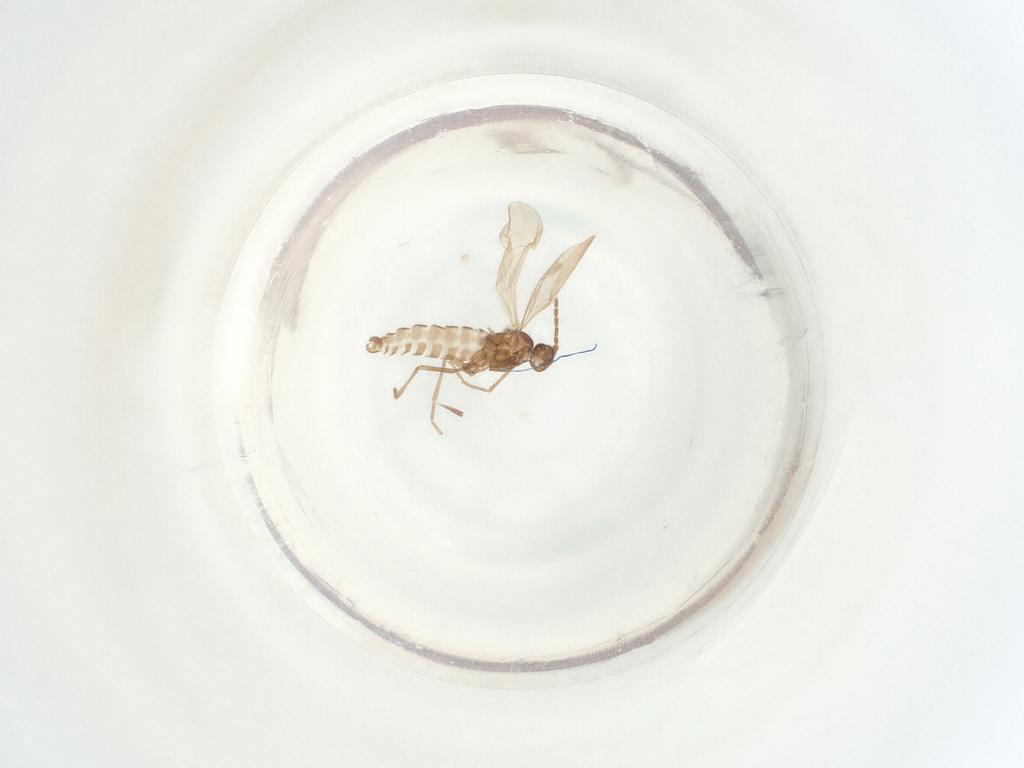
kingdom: Animalia
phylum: Arthropoda
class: Insecta
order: Diptera
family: Sciaridae
